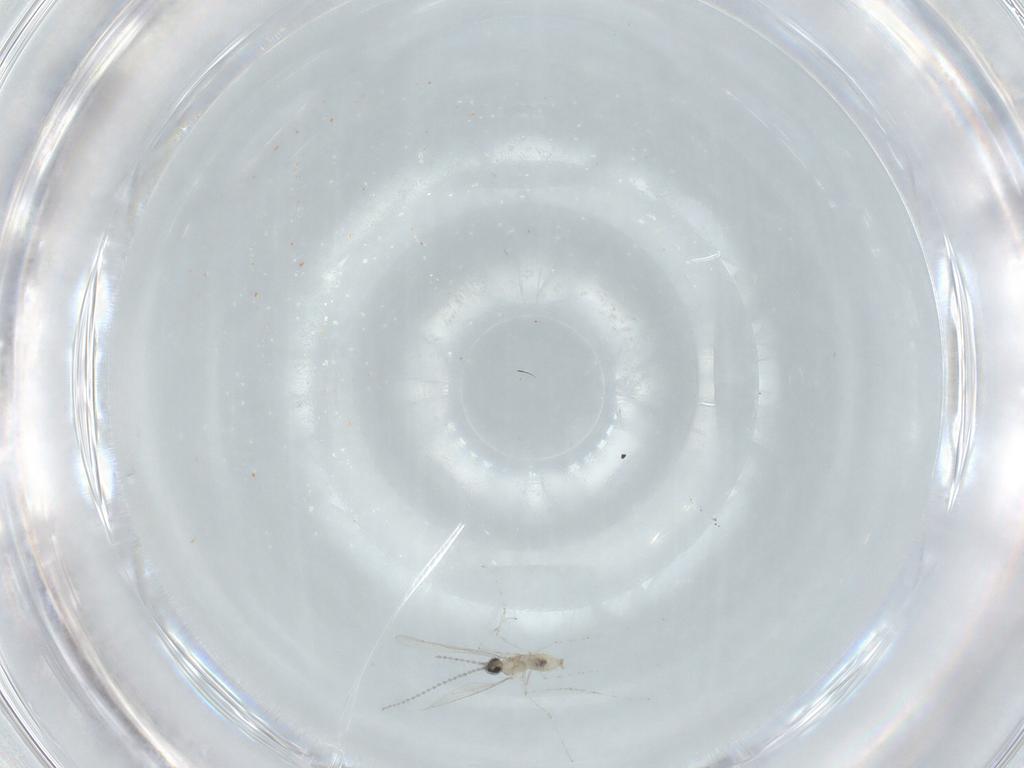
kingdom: Animalia
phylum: Arthropoda
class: Insecta
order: Diptera
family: Cecidomyiidae
